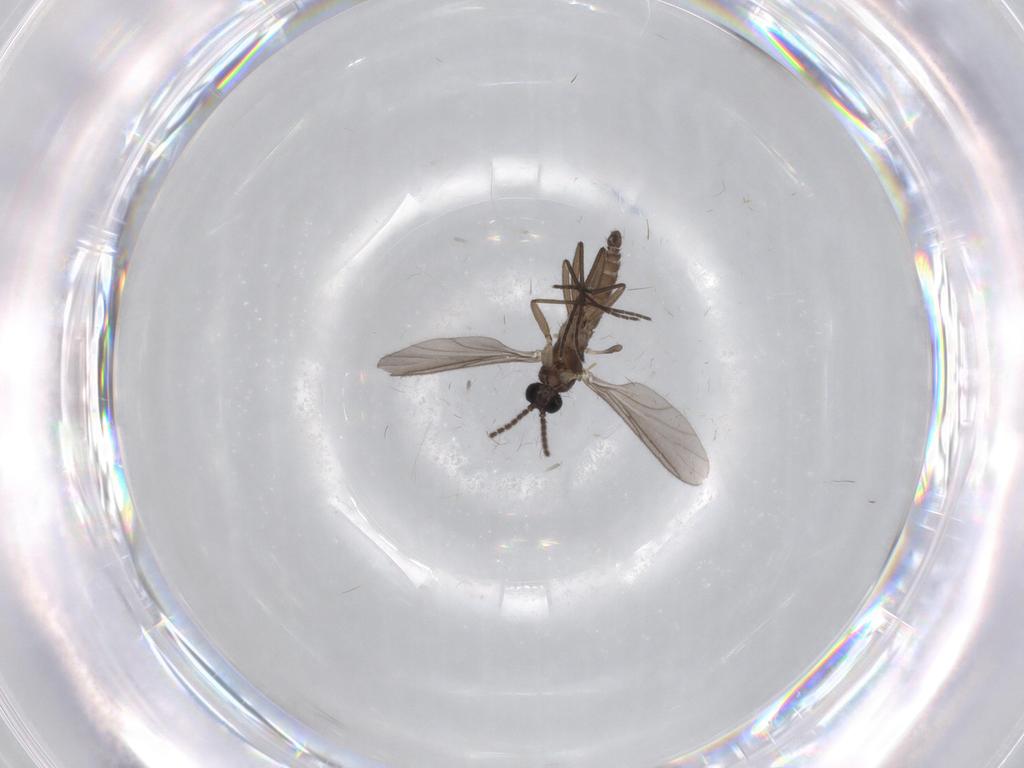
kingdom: Animalia
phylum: Arthropoda
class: Insecta
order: Diptera
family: Sciaridae
